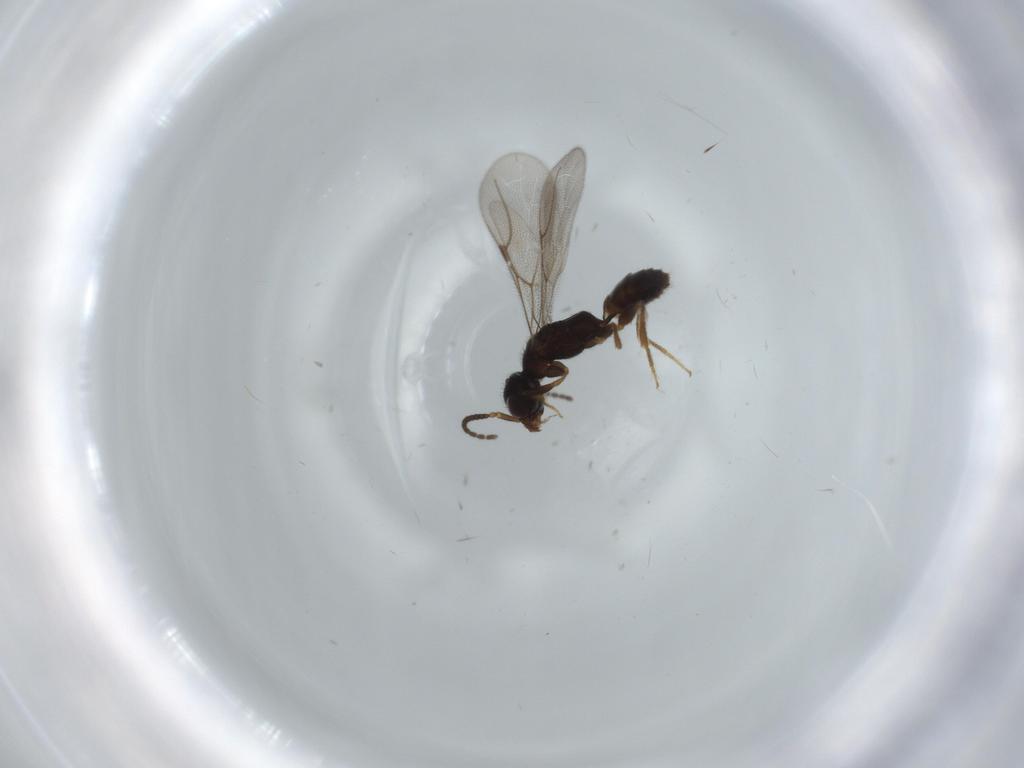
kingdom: Animalia
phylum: Arthropoda
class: Insecta
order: Hymenoptera
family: Bethylidae
